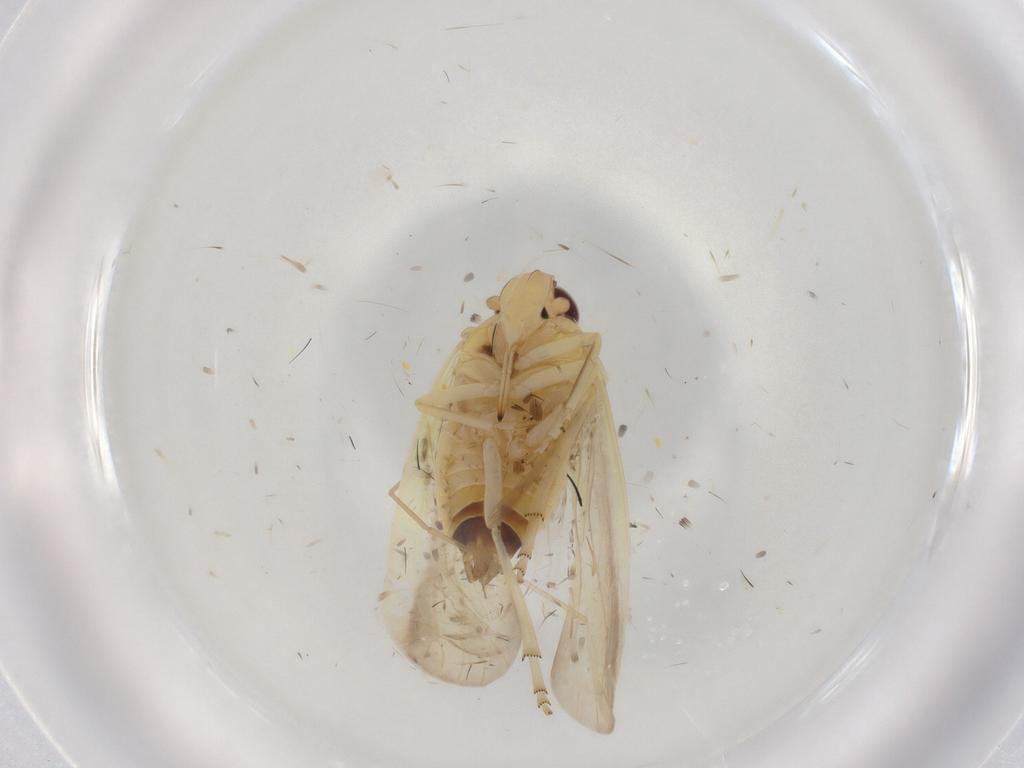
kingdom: Animalia
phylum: Arthropoda
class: Insecta
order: Hemiptera
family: Achilidae
